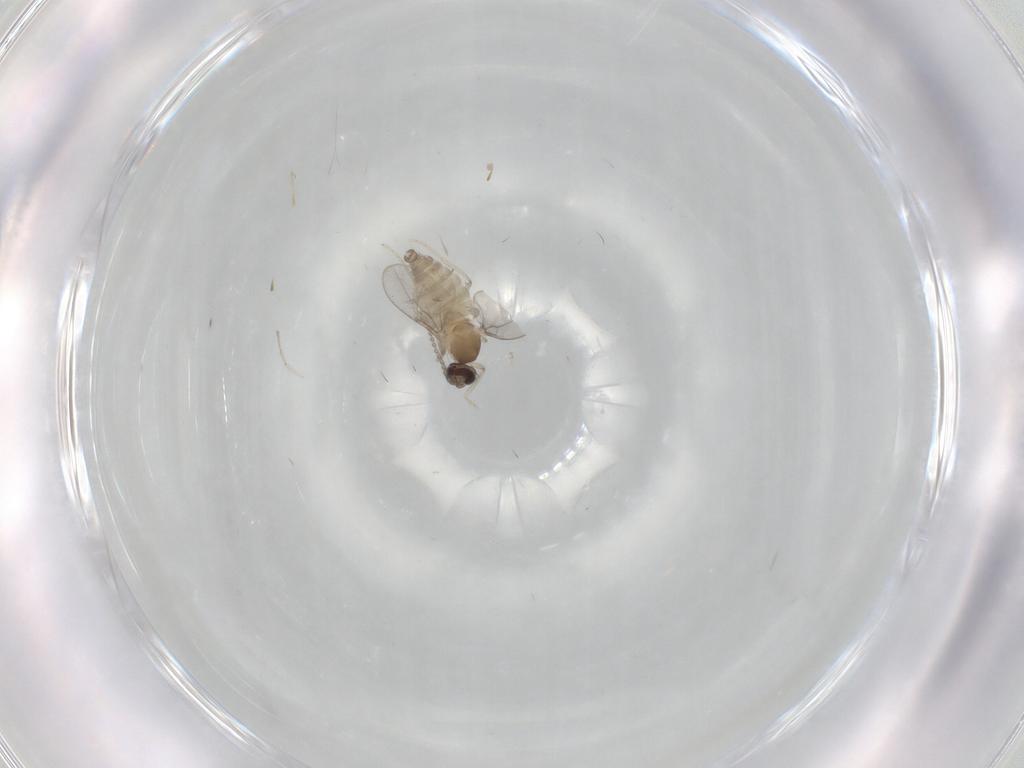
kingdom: Animalia
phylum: Arthropoda
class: Insecta
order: Diptera
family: Cecidomyiidae
